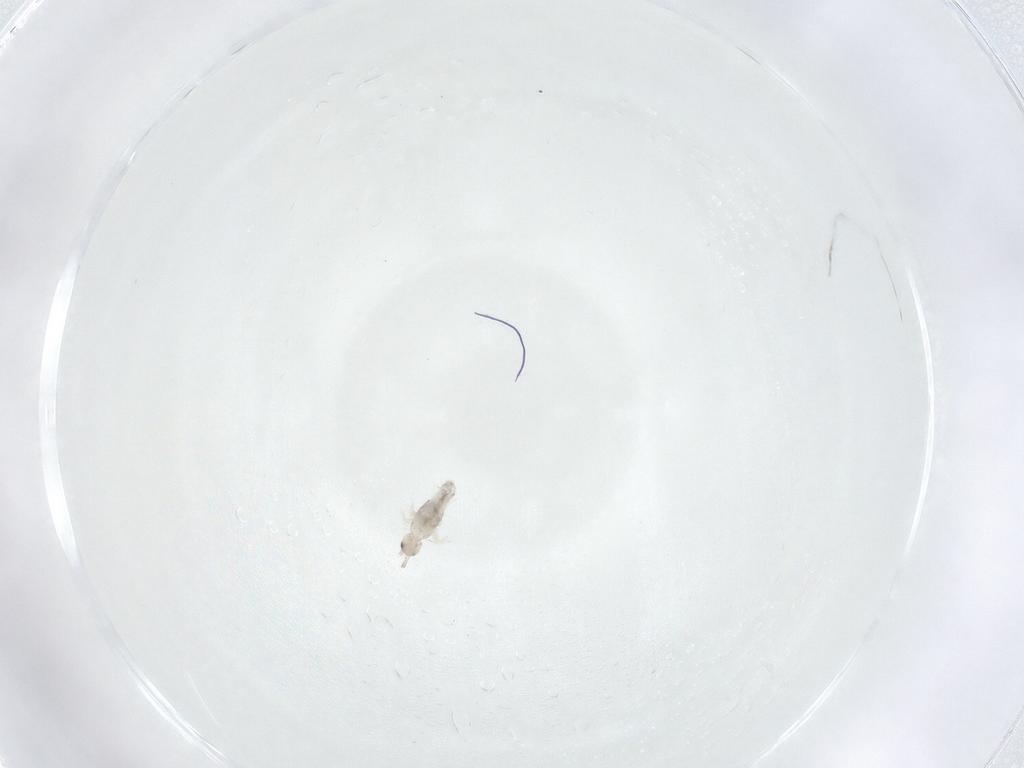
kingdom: Animalia
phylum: Arthropoda
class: Collembola
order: Entomobryomorpha
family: Entomobryidae
